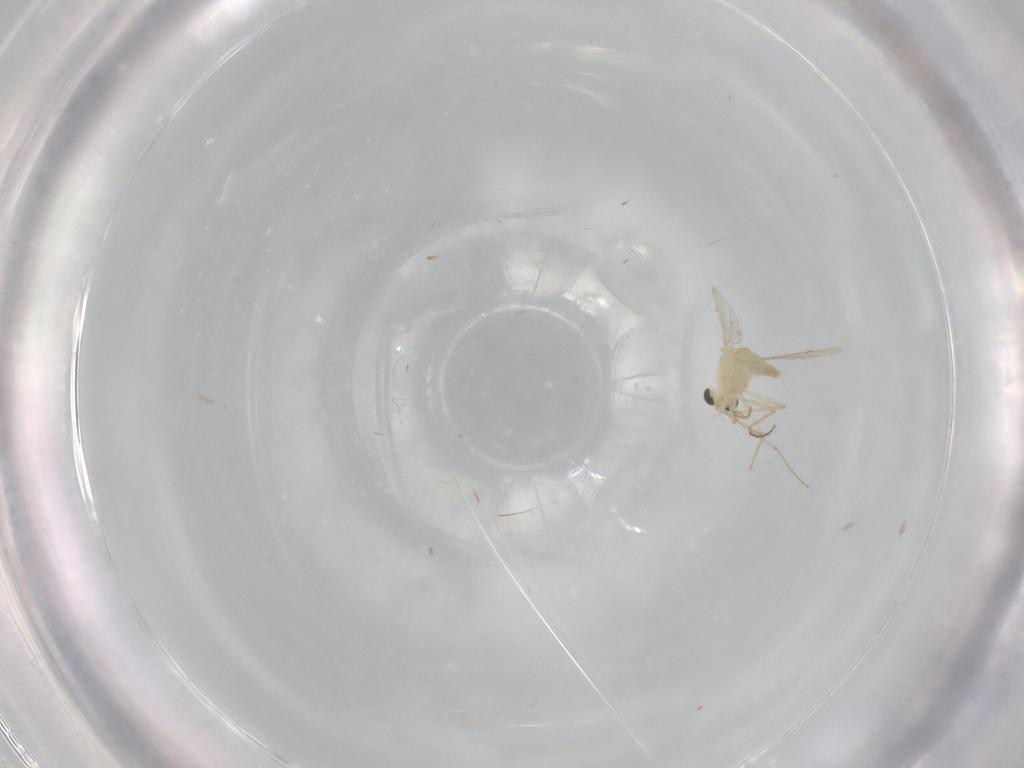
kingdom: Animalia
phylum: Arthropoda
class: Insecta
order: Diptera
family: Chironomidae
